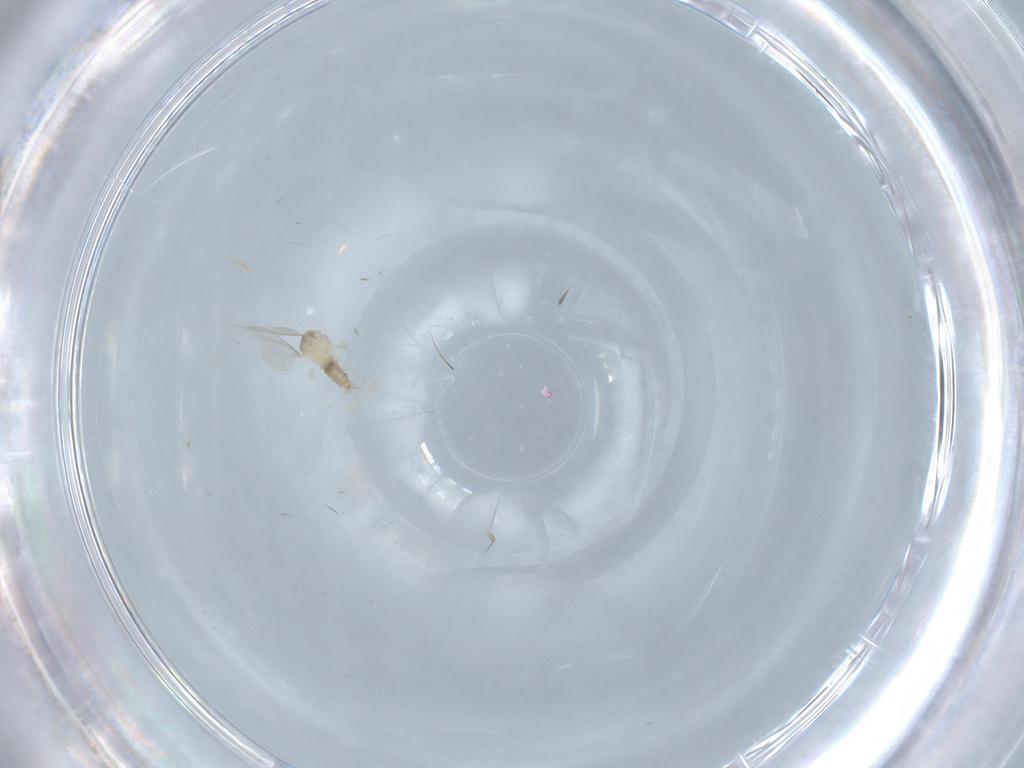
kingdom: Animalia
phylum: Arthropoda
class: Insecta
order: Diptera
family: Cecidomyiidae
